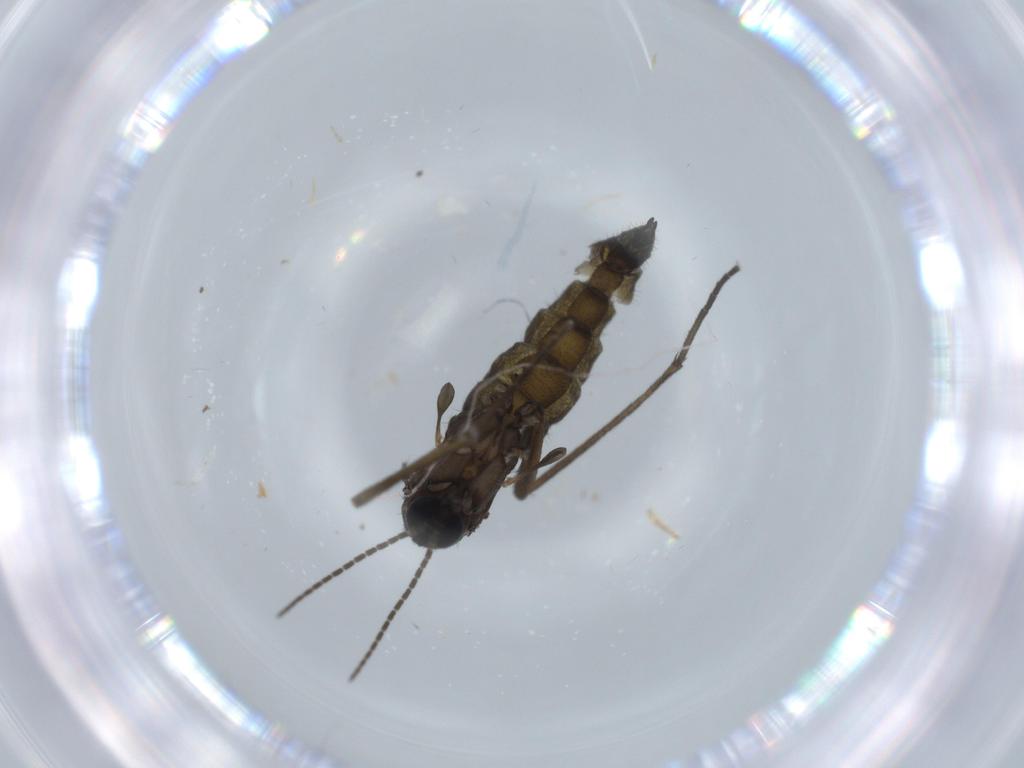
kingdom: Animalia
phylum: Arthropoda
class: Insecta
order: Diptera
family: Sciaridae
